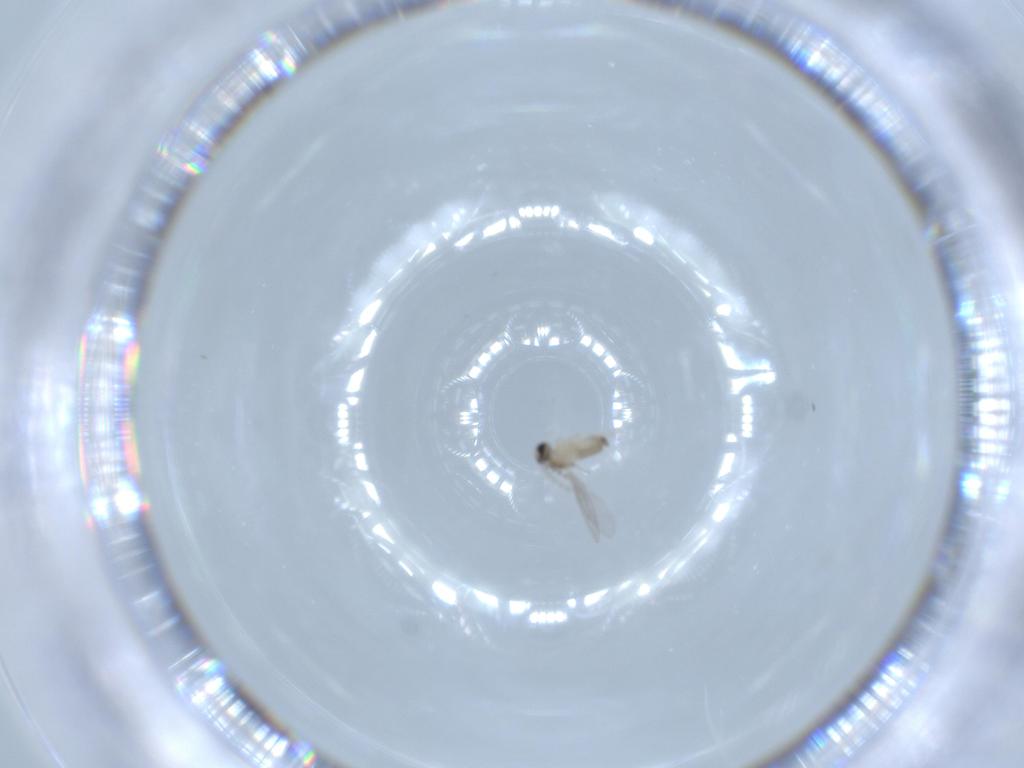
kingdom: Animalia
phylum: Arthropoda
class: Insecta
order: Diptera
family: Cecidomyiidae
